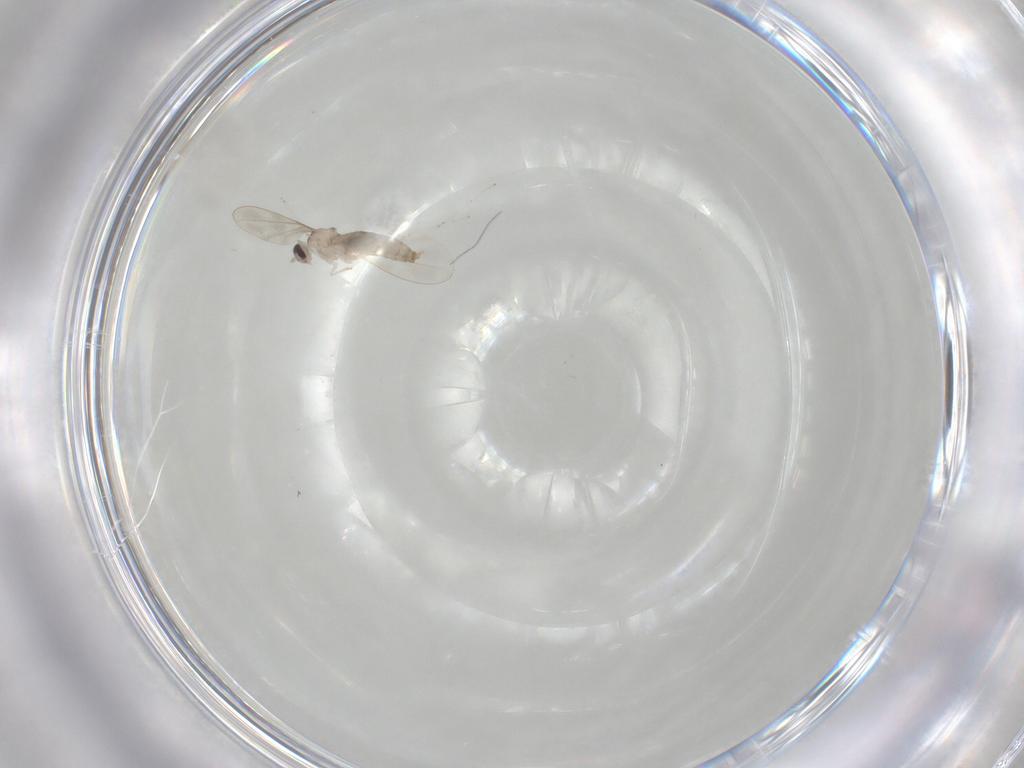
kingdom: Animalia
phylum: Arthropoda
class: Insecta
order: Diptera
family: Cecidomyiidae
